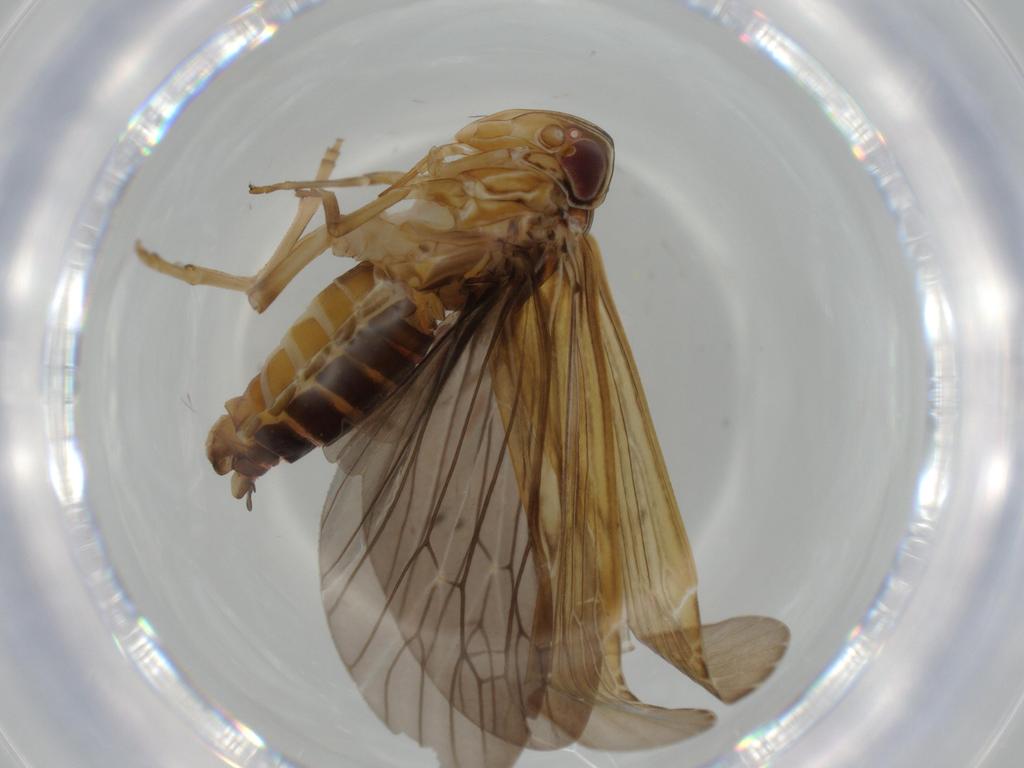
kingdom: Animalia
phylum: Arthropoda
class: Insecta
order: Hemiptera
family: Achilidae
